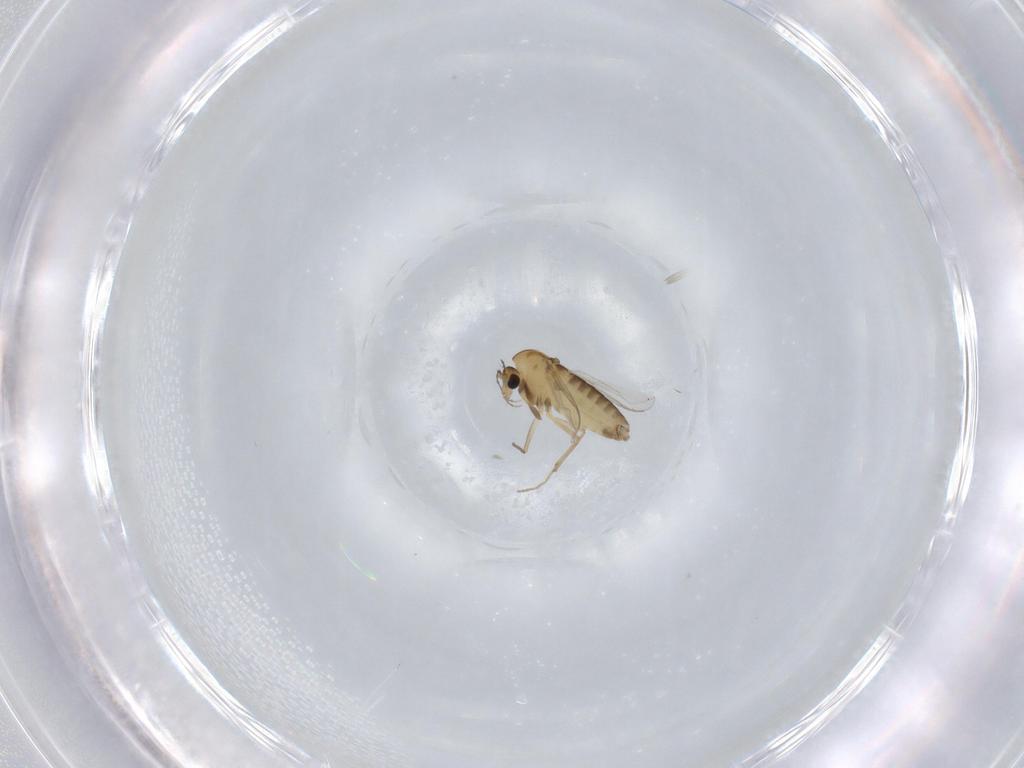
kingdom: Animalia
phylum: Arthropoda
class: Insecta
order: Diptera
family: Chironomidae
